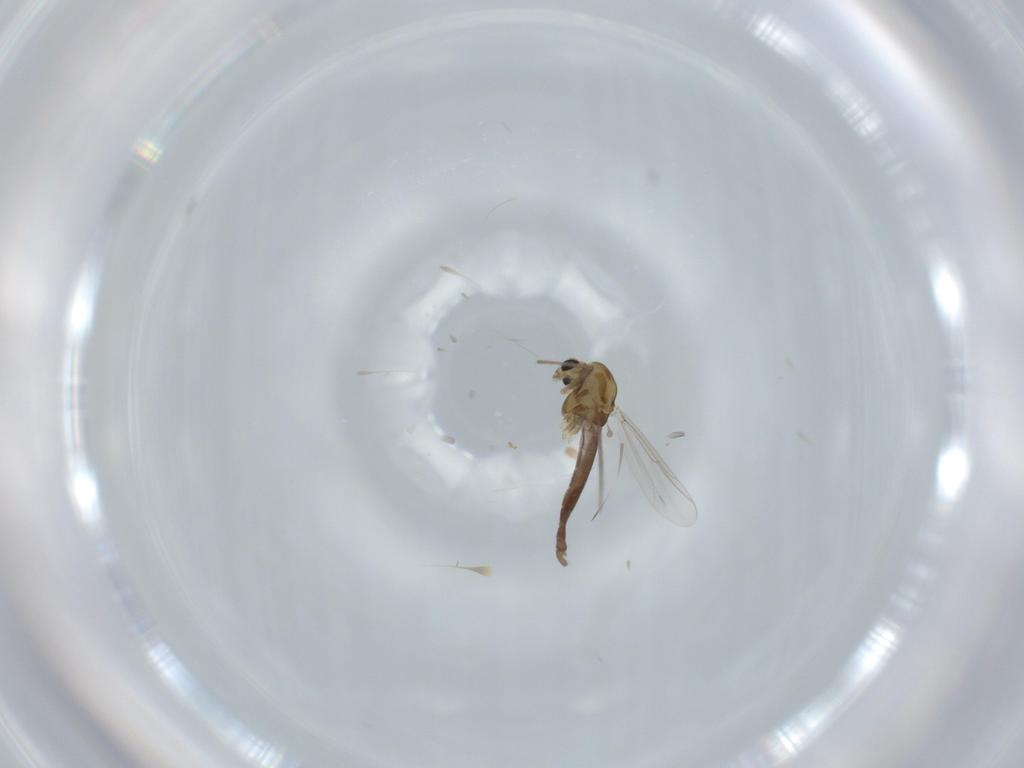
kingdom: Animalia
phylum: Arthropoda
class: Insecta
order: Diptera
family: Chironomidae
